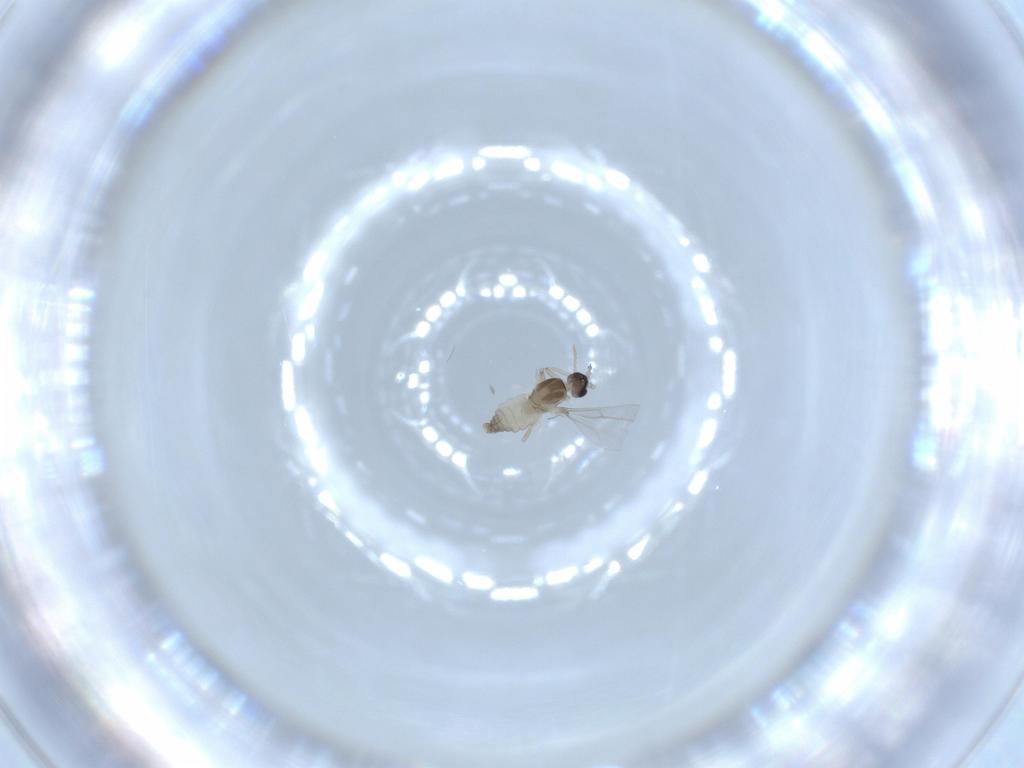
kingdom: Animalia
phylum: Arthropoda
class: Insecta
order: Diptera
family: Cecidomyiidae
